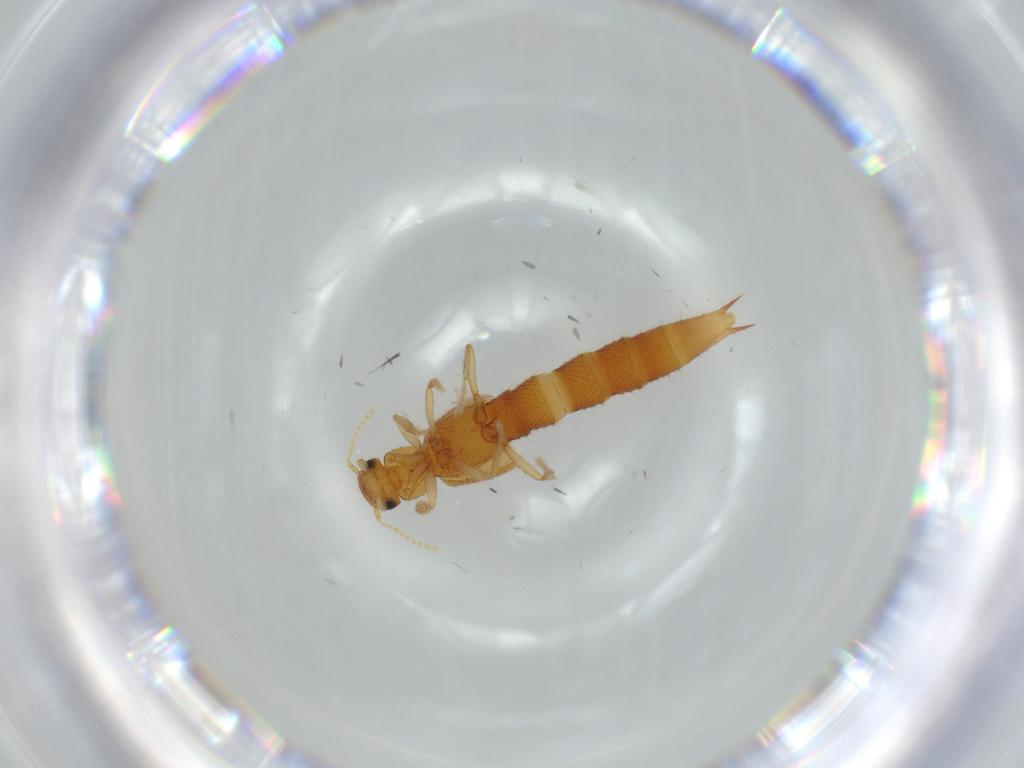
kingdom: Animalia
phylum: Arthropoda
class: Insecta
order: Coleoptera
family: Staphylinidae
